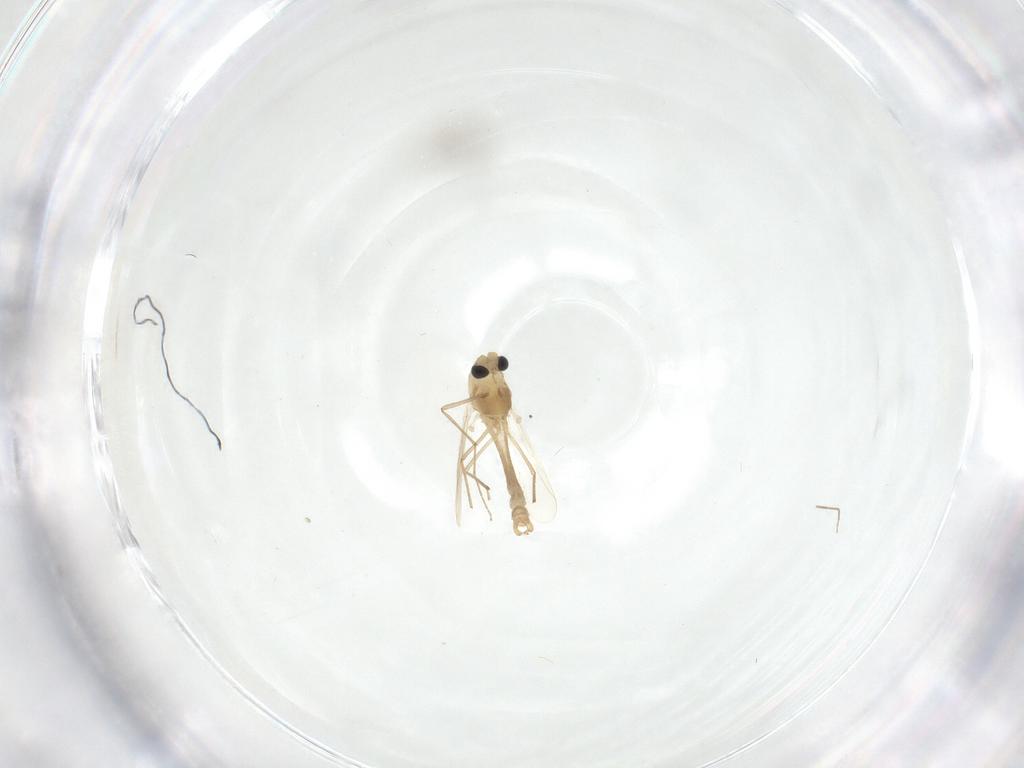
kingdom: Animalia
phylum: Arthropoda
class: Insecta
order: Diptera
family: Chironomidae
